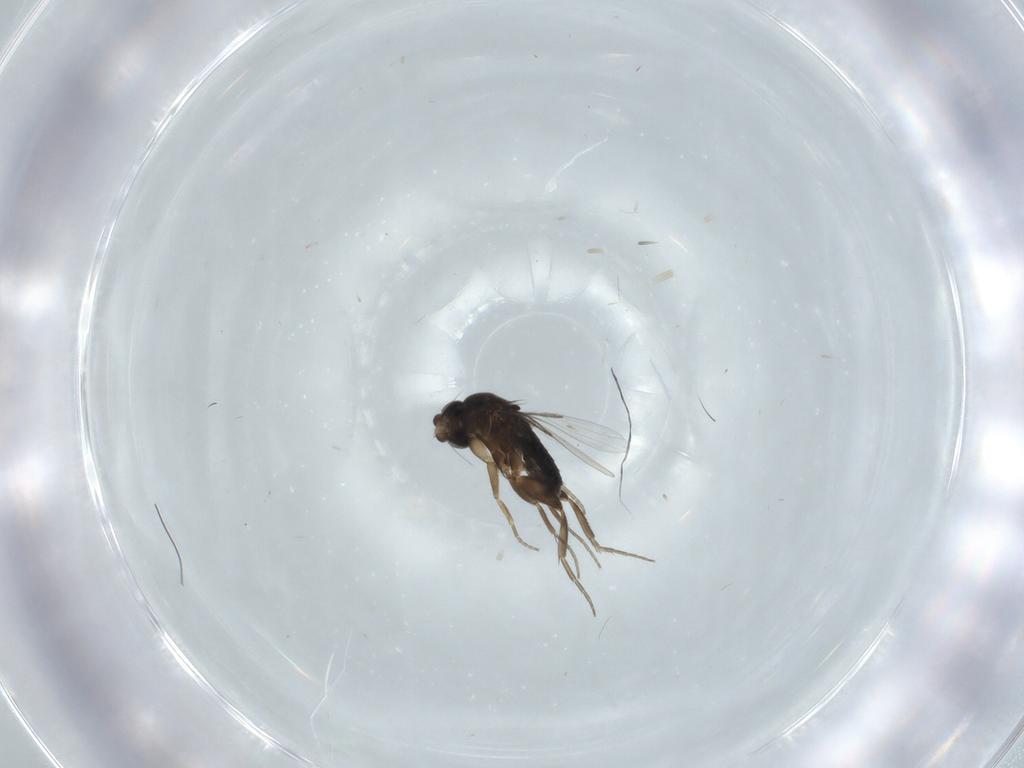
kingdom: Animalia
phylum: Arthropoda
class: Insecta
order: Diptera
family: Phoridae
